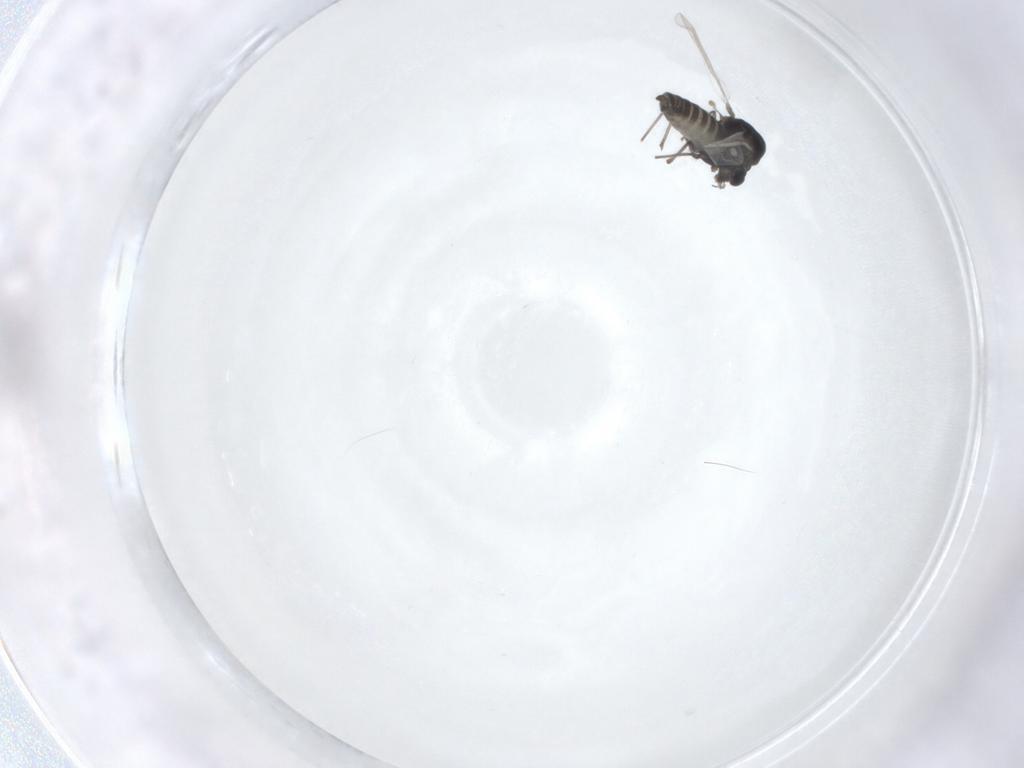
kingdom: Animalia
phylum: Arthropoda
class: Insecta
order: Diptera
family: Chironomidae
